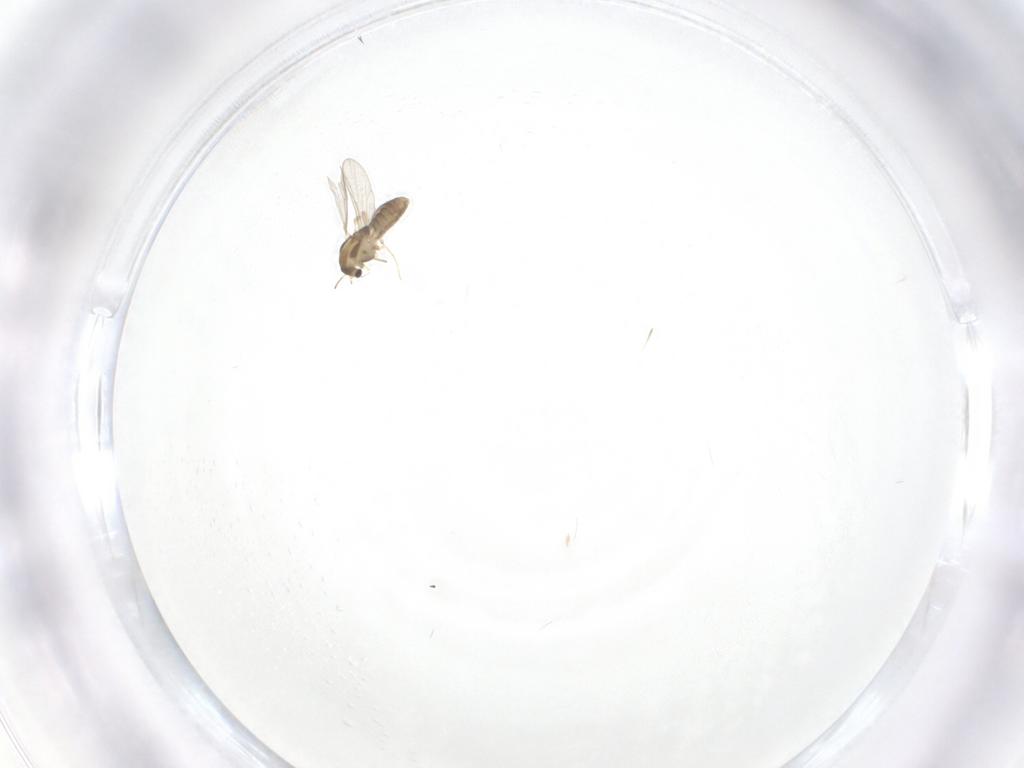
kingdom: Animalia
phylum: Arthropoda
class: Insecta
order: Diptera
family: Chironomidae
